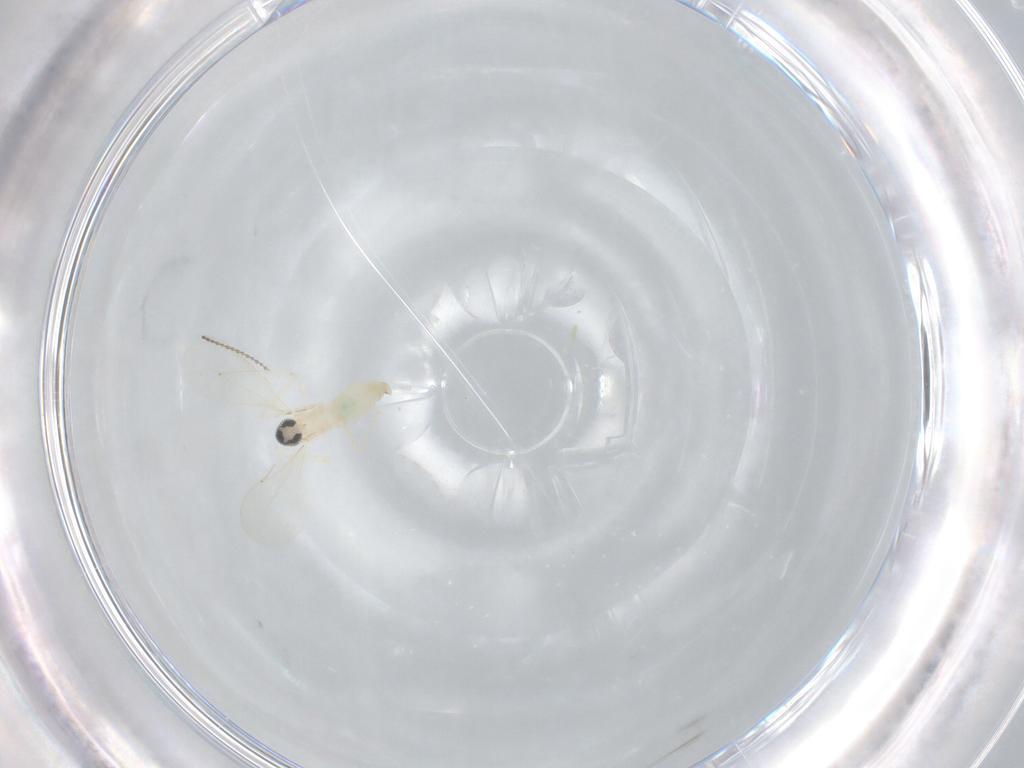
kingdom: Animalia
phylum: Arthropoda
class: Insecta
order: Diptera
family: Cecidomyiidae
